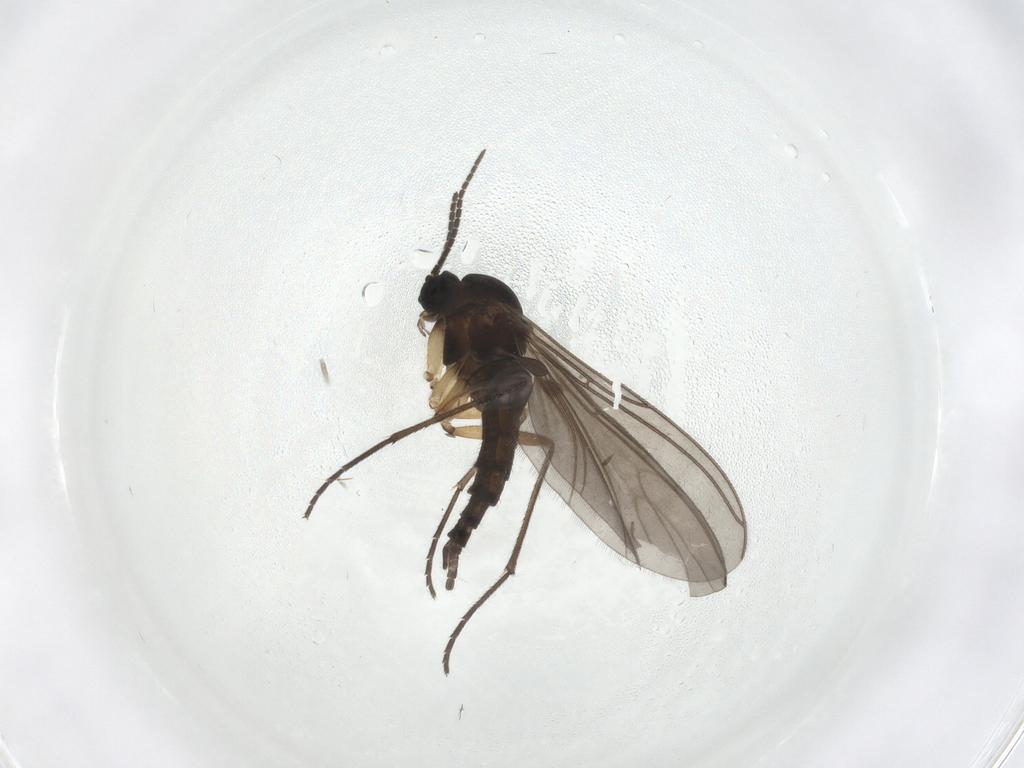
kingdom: Animalia
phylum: Arthropoda
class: Insecta
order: Diptera
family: Sciaridae
